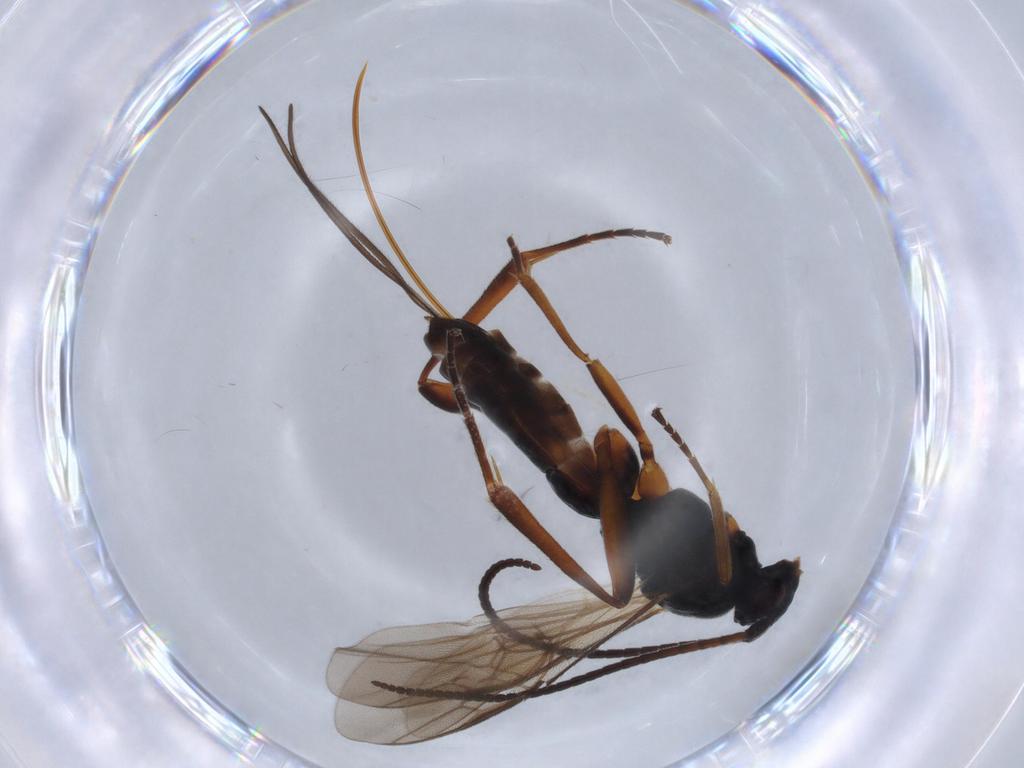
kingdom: Animalia
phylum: Arthropoda
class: Insecta
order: Hymenoptera
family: Braconidae
